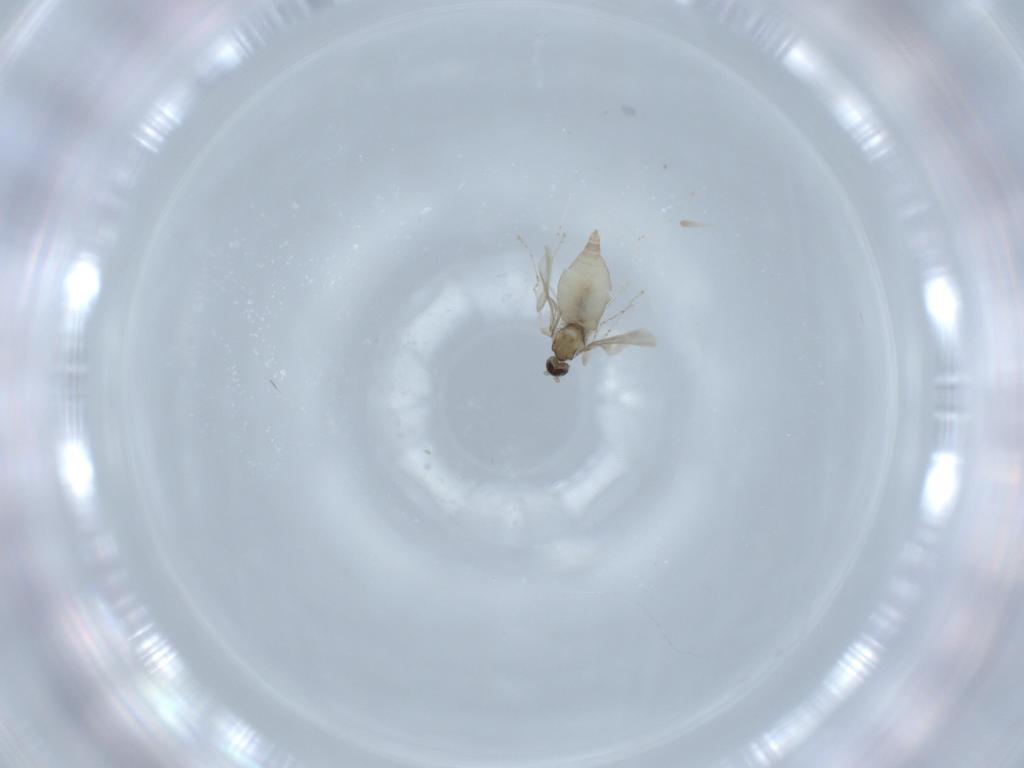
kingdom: Animalia
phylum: Arthropoda
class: Insecta
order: Diptera
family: Cecidomyiidae
